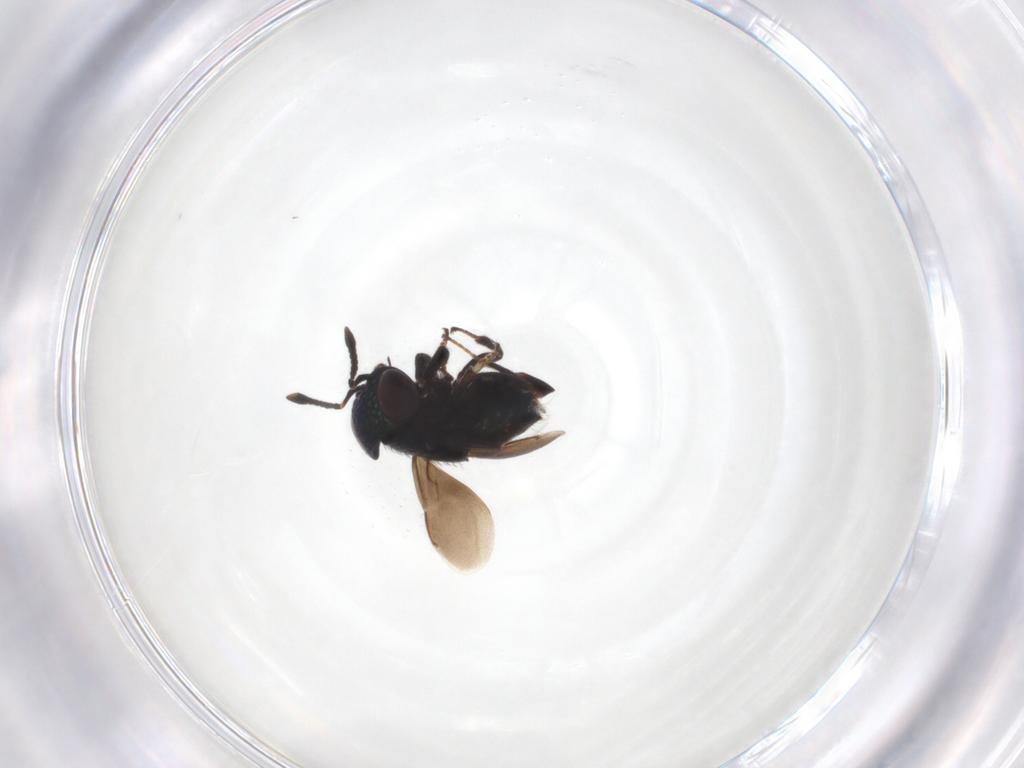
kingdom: Animalia
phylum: Arthropoda
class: Insecta
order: Hymenoptera
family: Encyrtidae
